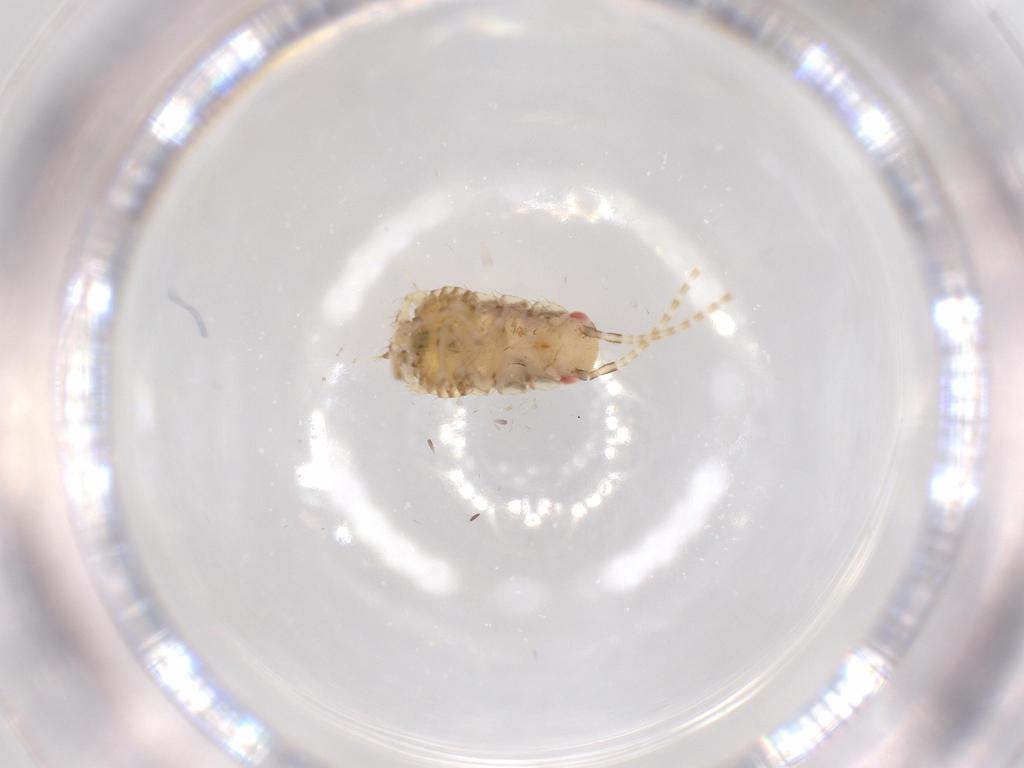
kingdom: Animalia
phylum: Arthropoda
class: Insecta
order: Blattodea
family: Ectobiidae
